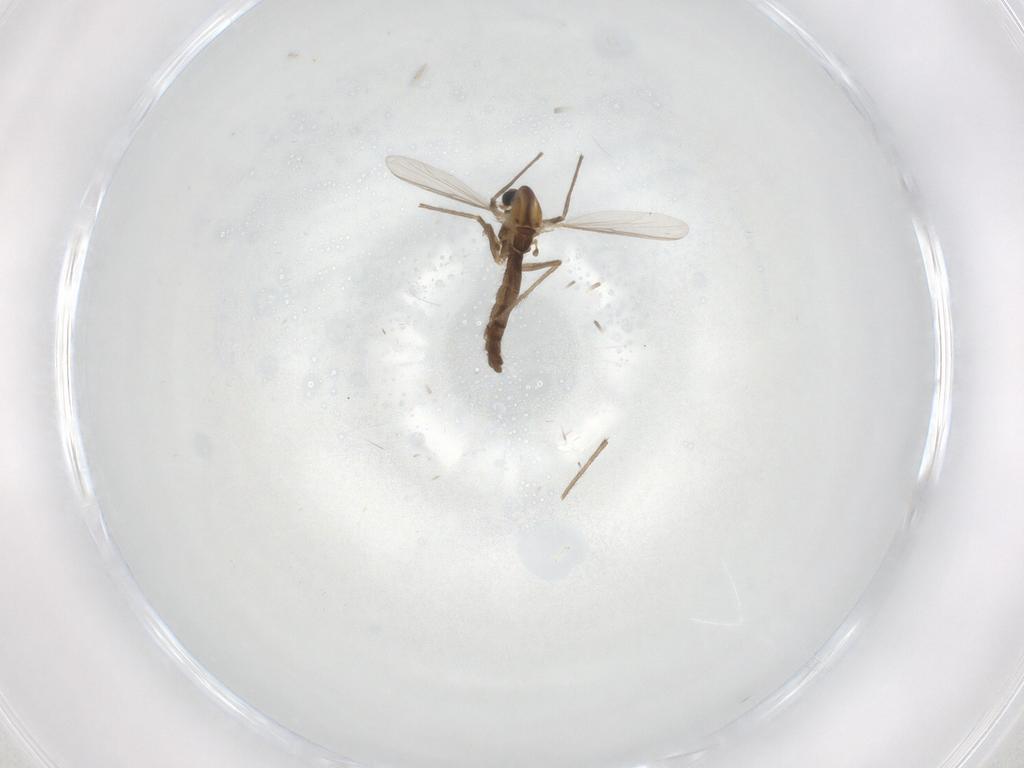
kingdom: Animalia
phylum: Arthropoda
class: Insecta
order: Diptera
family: Chironomidae
